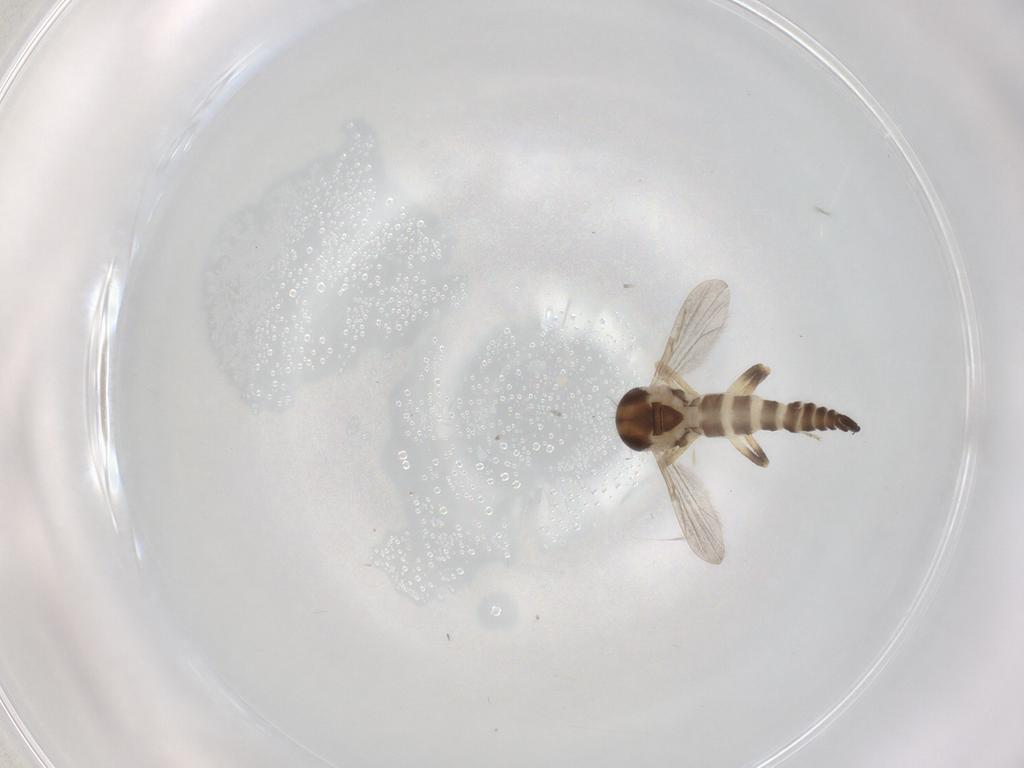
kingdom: Animalia
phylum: Arthropoda
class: Insecta
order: Diptera
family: Ceratopogonidae
